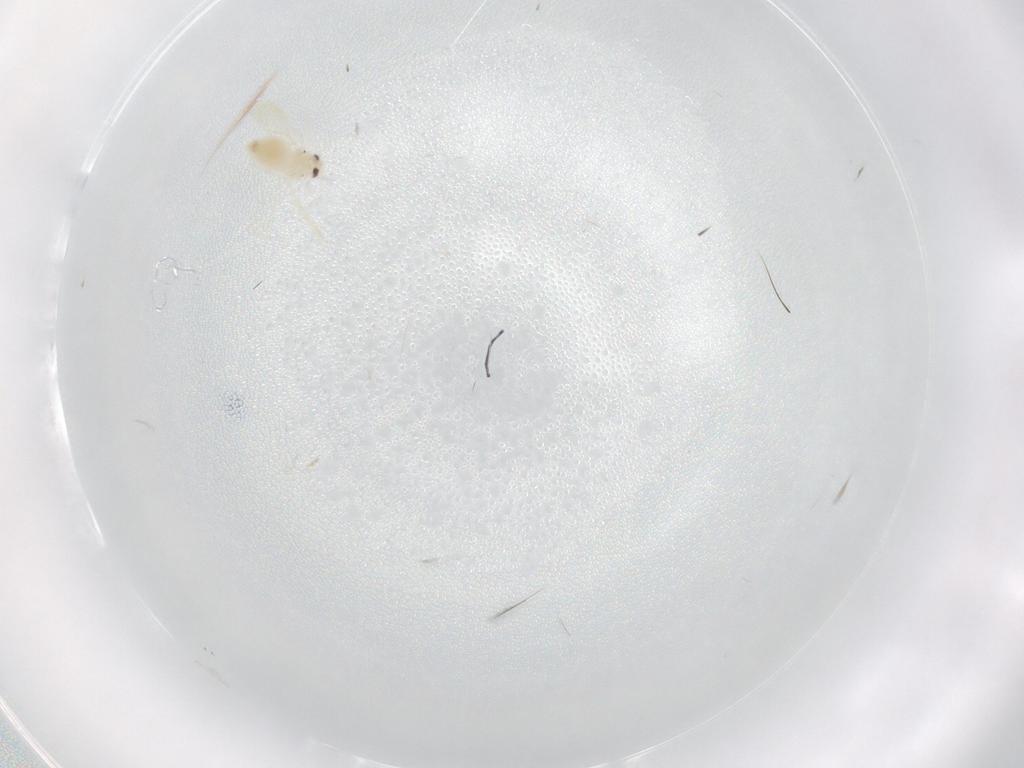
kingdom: Animalia
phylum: Arthropoda
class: Insecta
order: Hemiptera
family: Aleyrodidae
